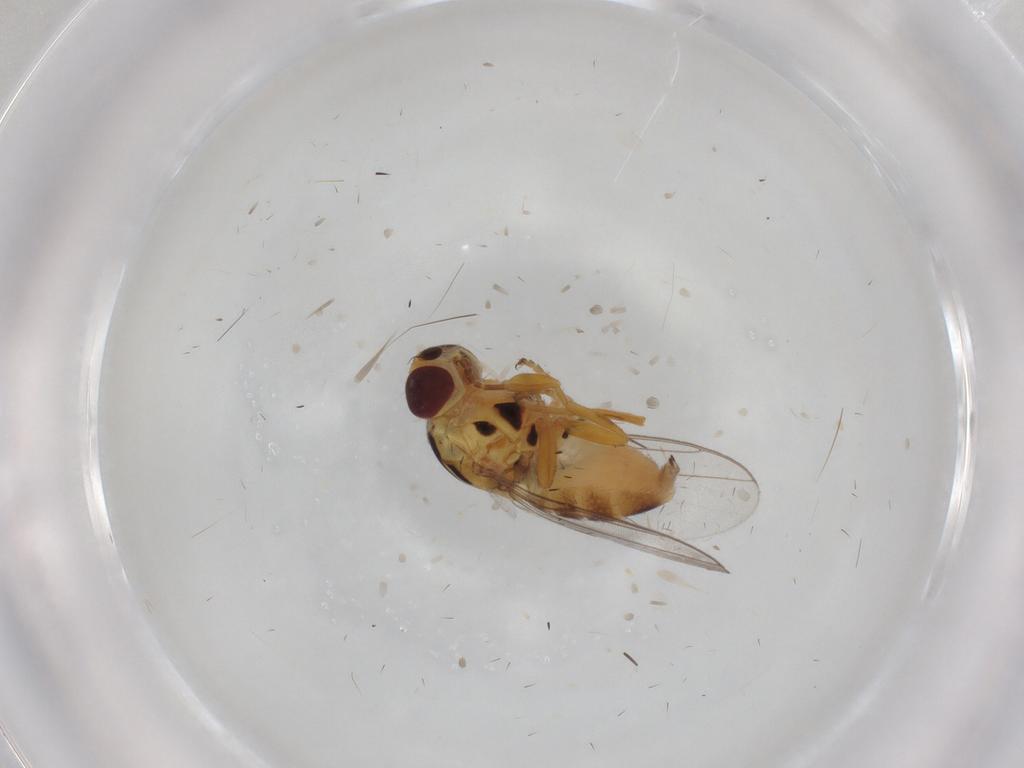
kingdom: Animalia
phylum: Arthropoda
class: Insecta
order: Diptera
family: Chloropidae
